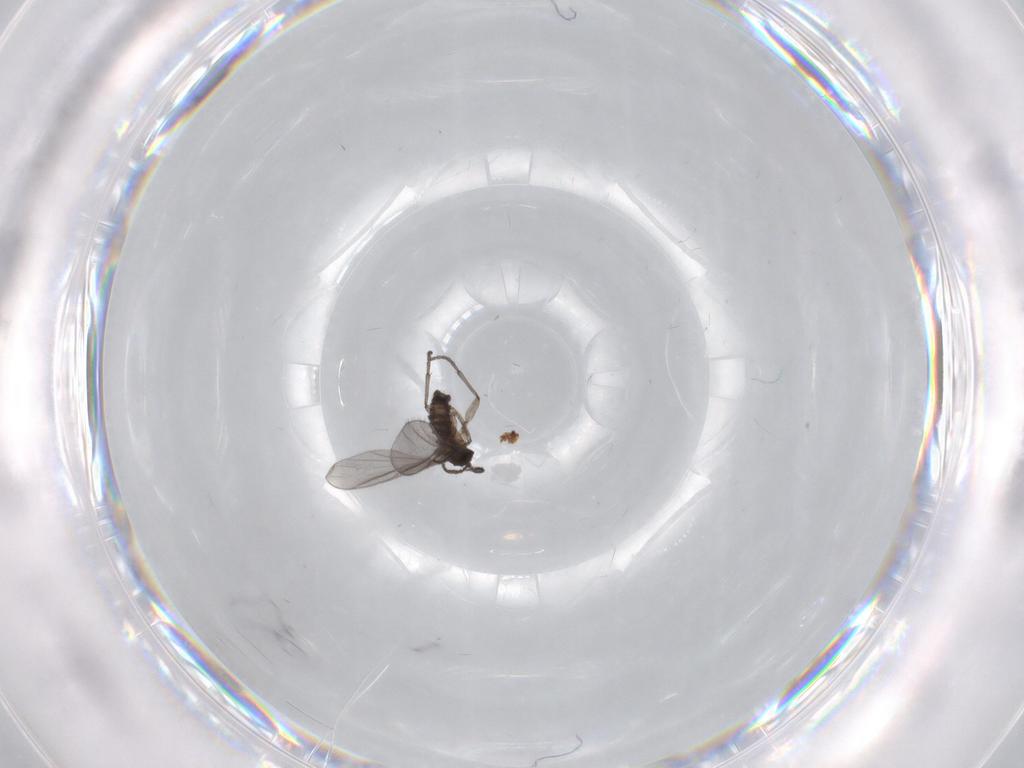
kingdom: Animalia
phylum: Arthropoda
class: Insecta
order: Diptera
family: Sciaridae
